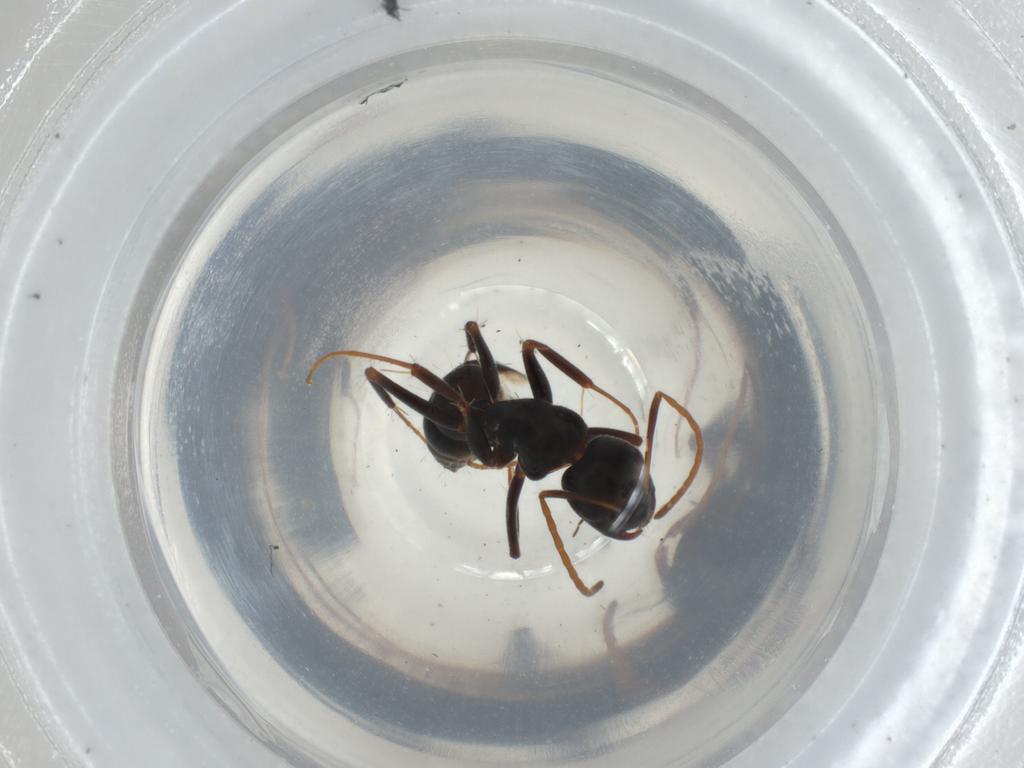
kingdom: Animalia
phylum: Arthropoda
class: Insecta
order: Hymenoptera
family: Formicidae
